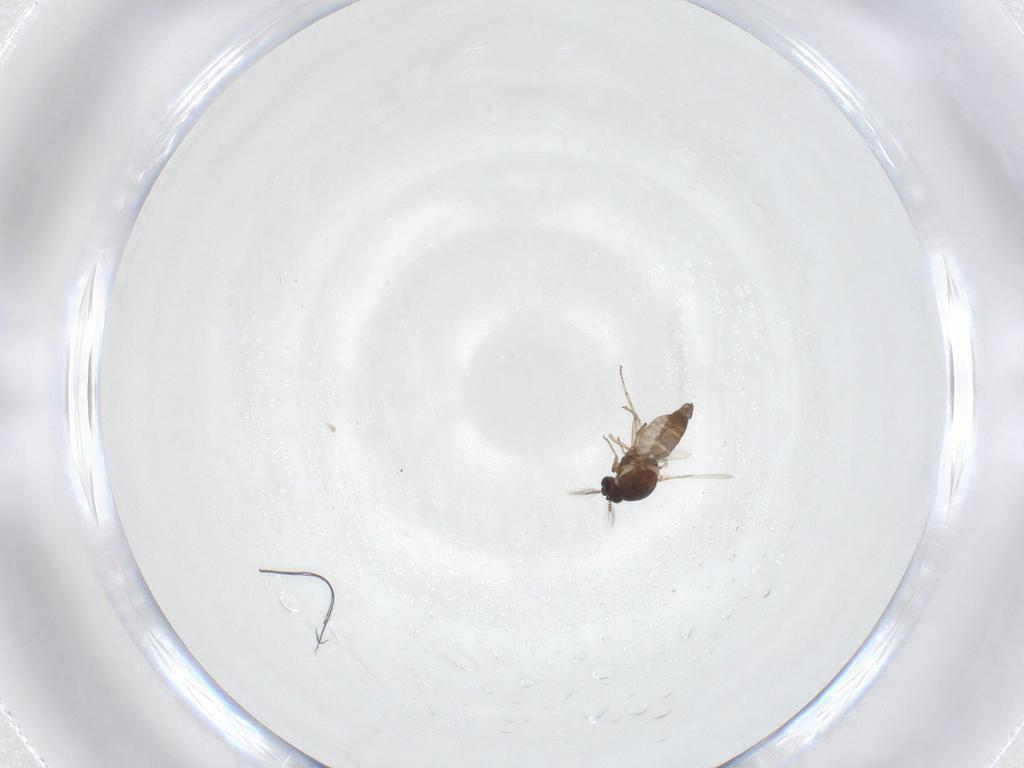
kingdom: Animalia
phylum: Arthropoda
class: Insecta
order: Diptera
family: Ceratopogonidae
